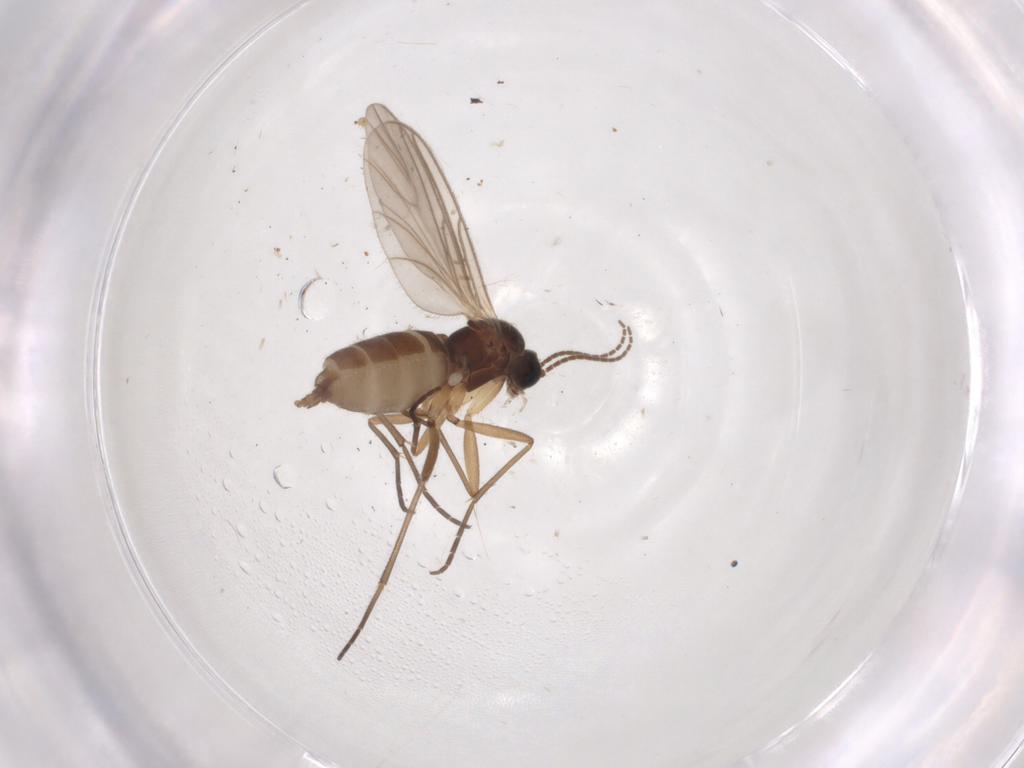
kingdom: Animalia
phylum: Arthropoda
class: Insecta
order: Diptera
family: Sciaridae
